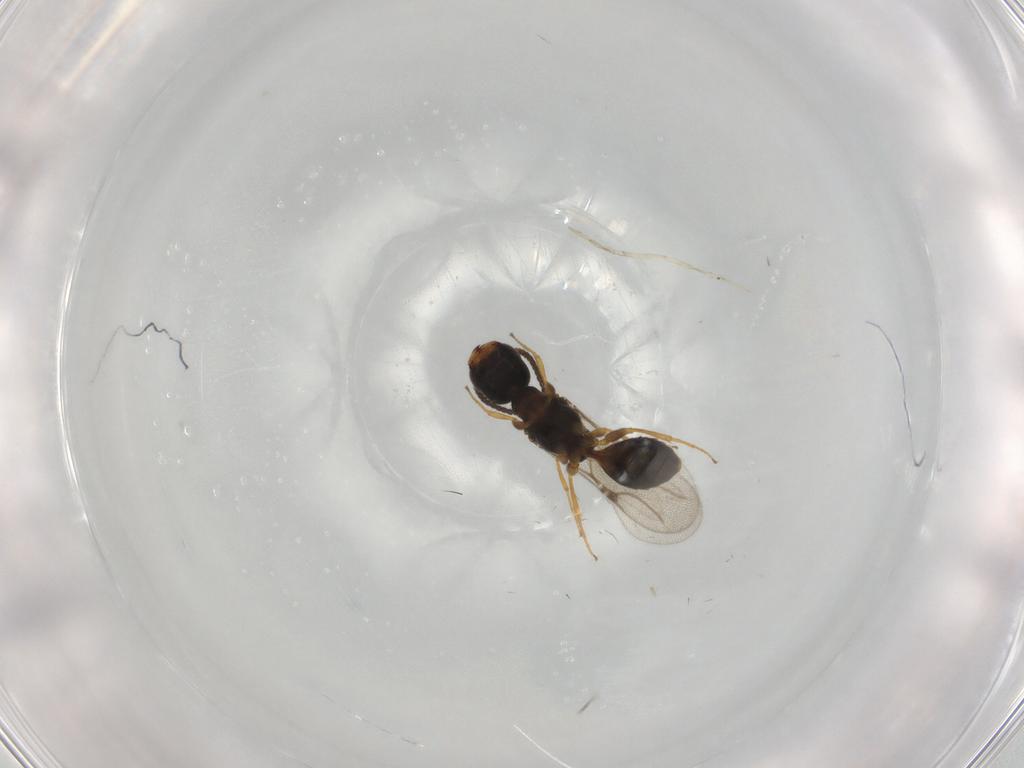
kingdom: Animalia
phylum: Arthropoda
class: Insecta
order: Hymenoptera
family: Bethylidae
